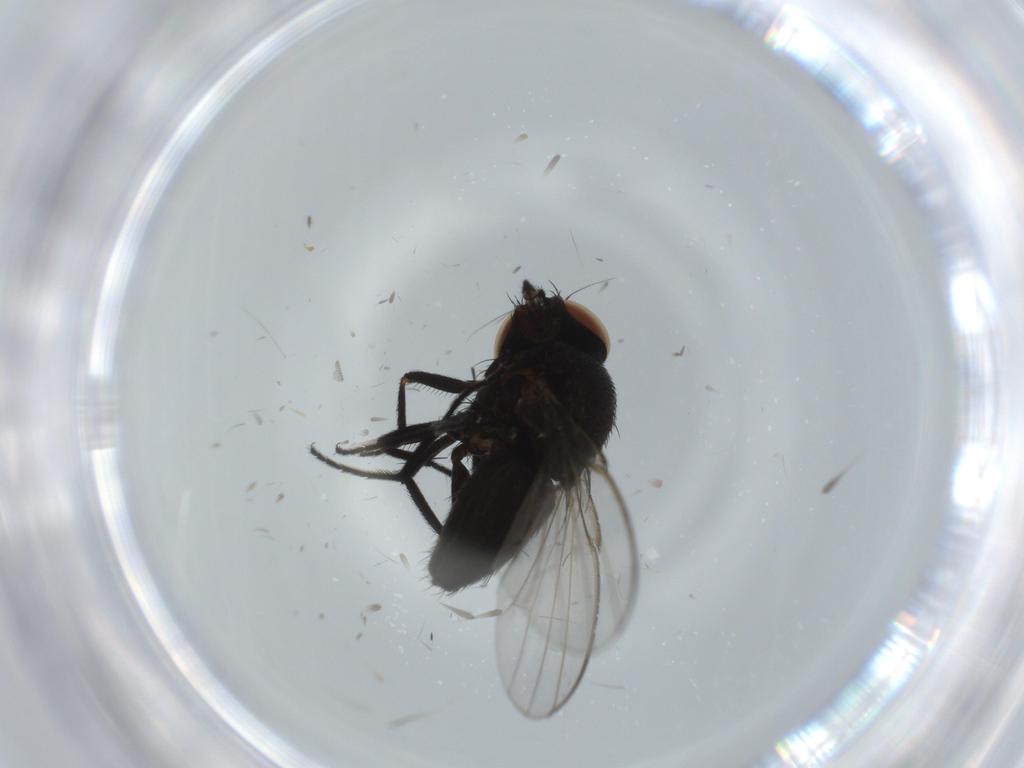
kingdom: Animalia
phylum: Arthropoda
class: Insecta
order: Diptera
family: Milichiidae
